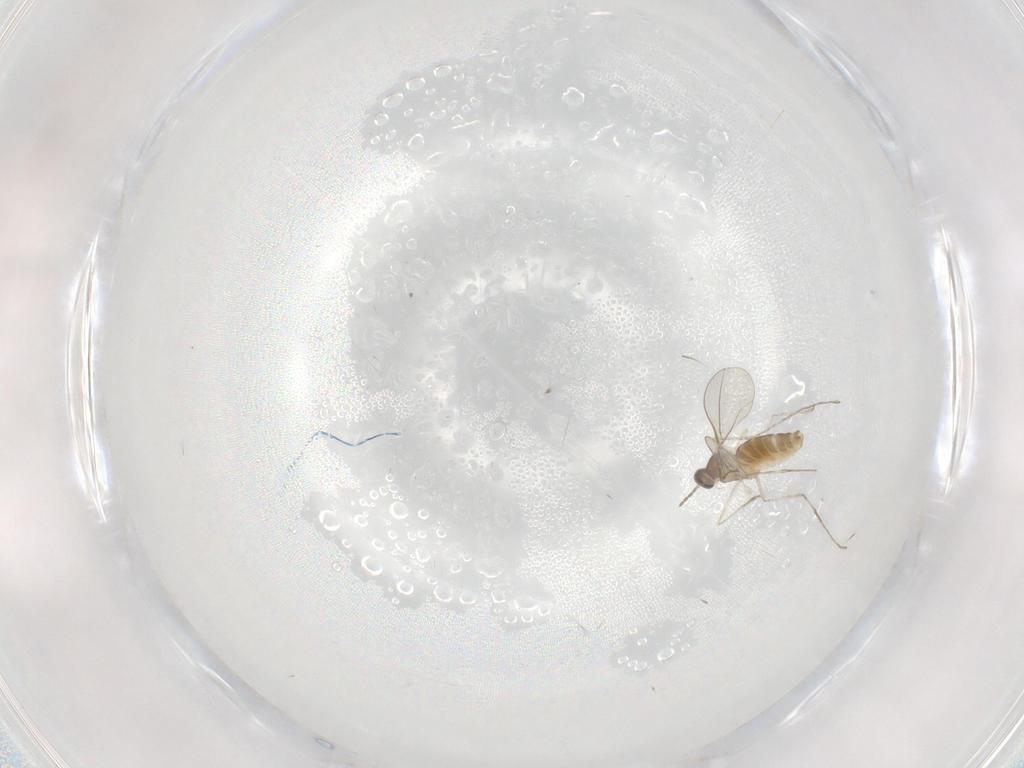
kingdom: Animalia
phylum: Arthropoda
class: Insecta
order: Diptera
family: Cecidomyiidae
